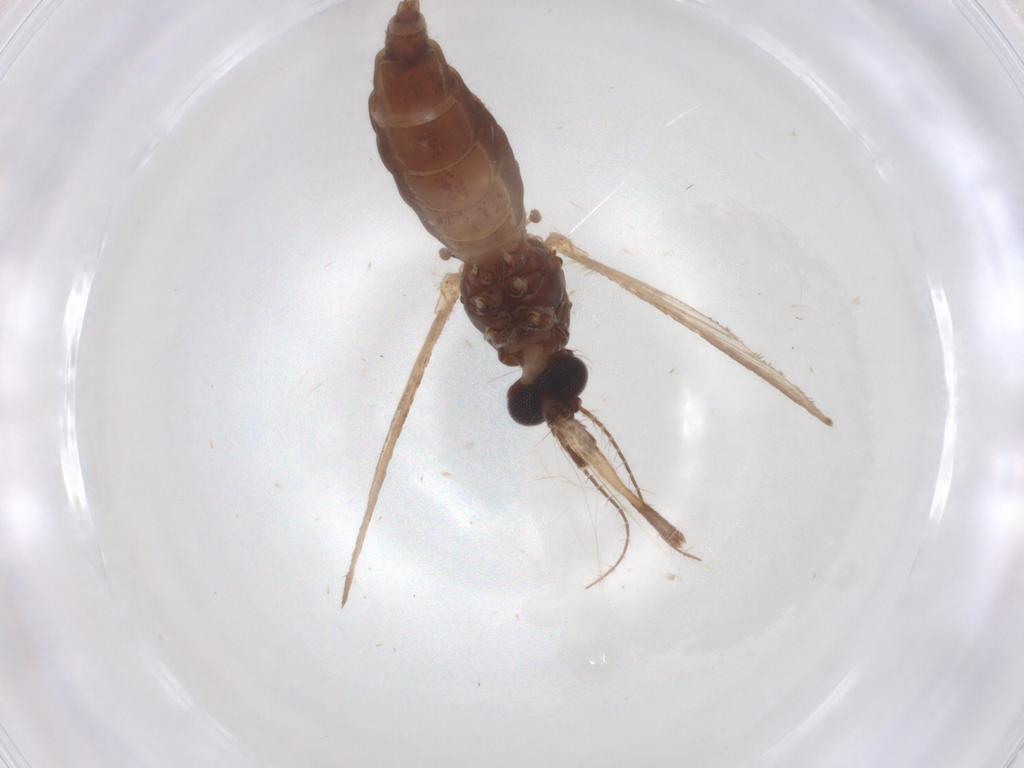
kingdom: Animalia
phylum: Arthropoda
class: Insecta
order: Diptera
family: Chloropidae
